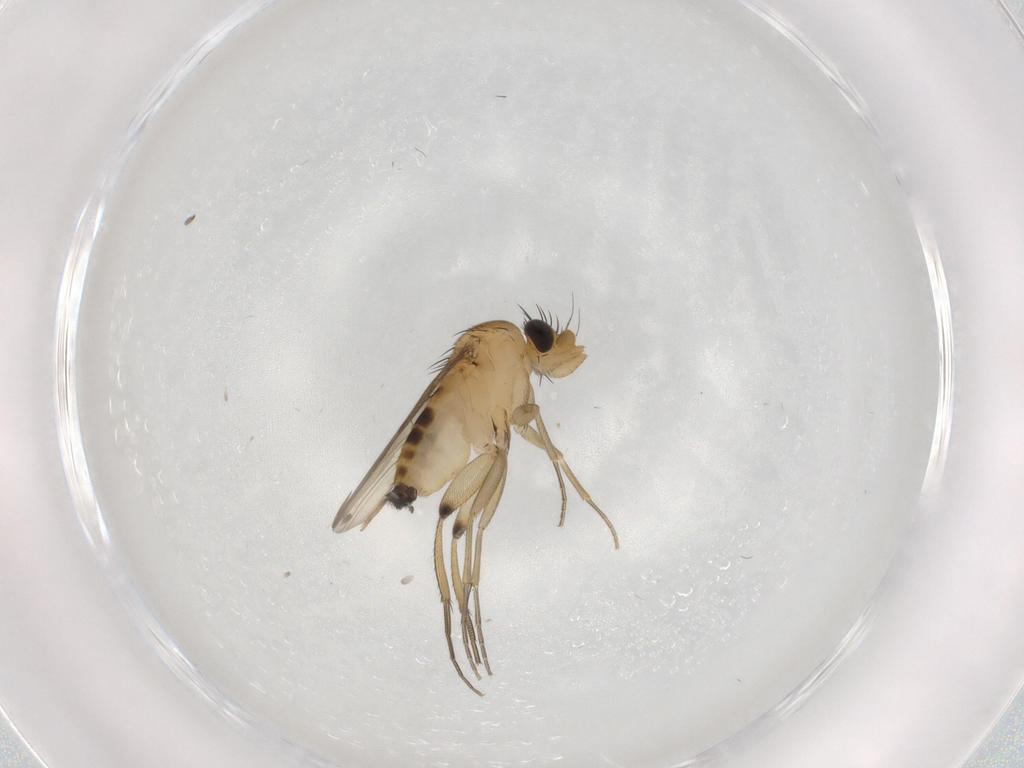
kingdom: Animalia
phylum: Arthropoda
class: Insecta
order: Diptera
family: Phoridae
